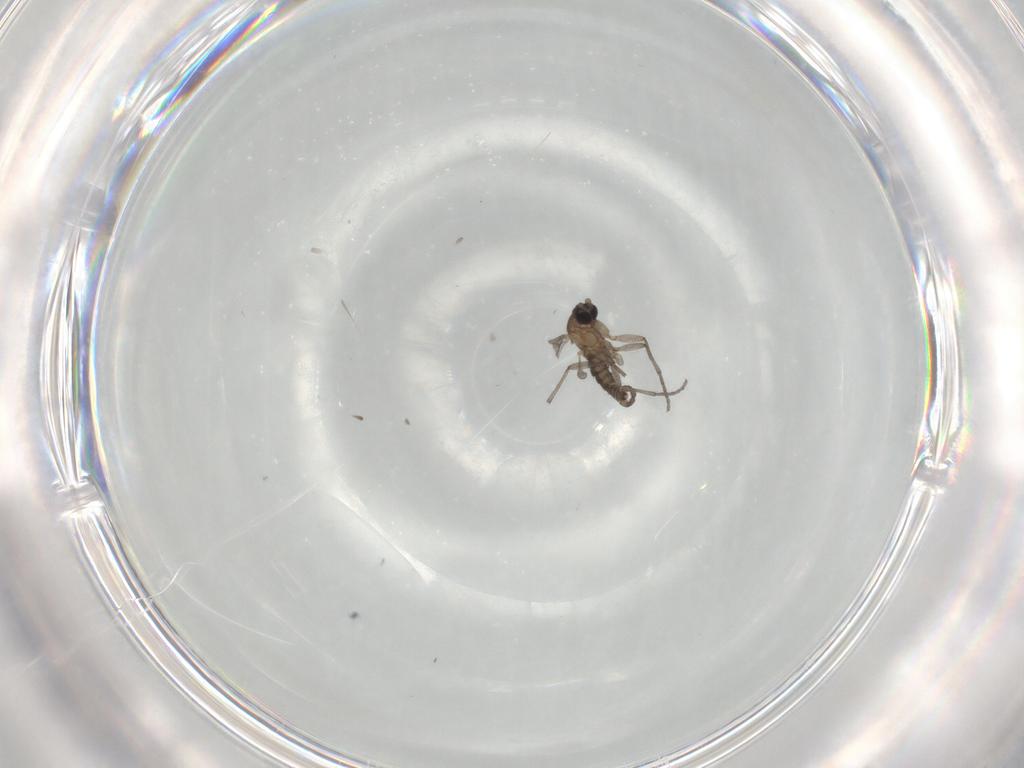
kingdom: Animalia
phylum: Arthropoda
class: Insecta
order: Diptera
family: Sciaridae
